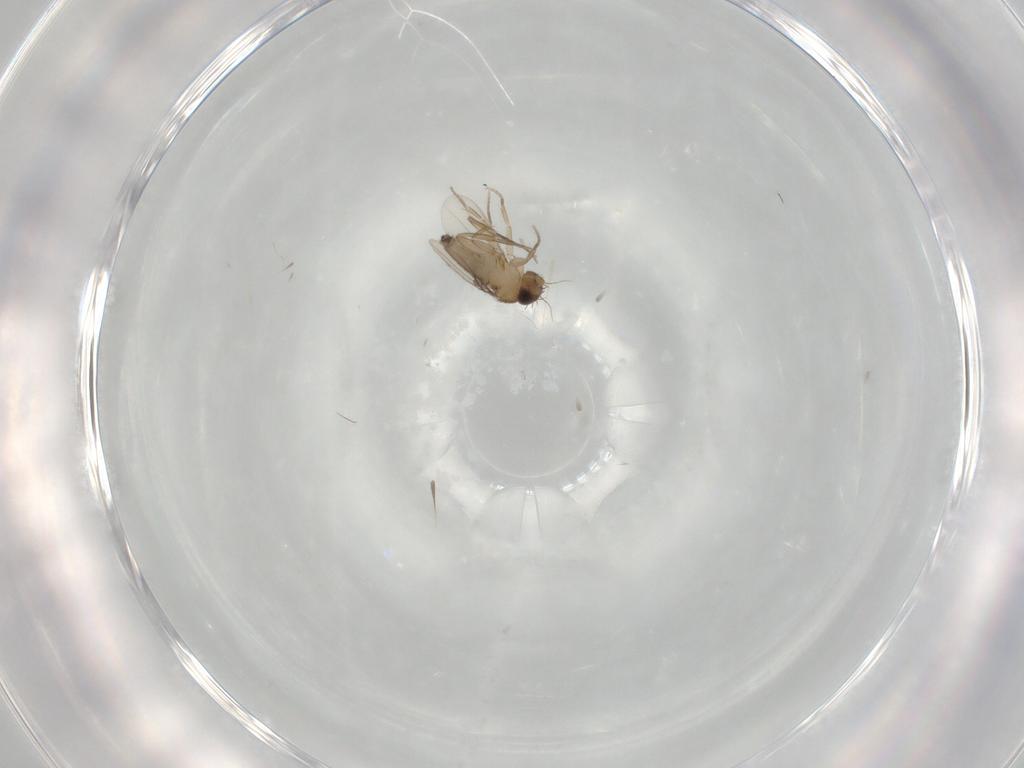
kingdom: Animalia
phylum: Arthropoda
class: Insecta
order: Diptera
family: Phoridae
